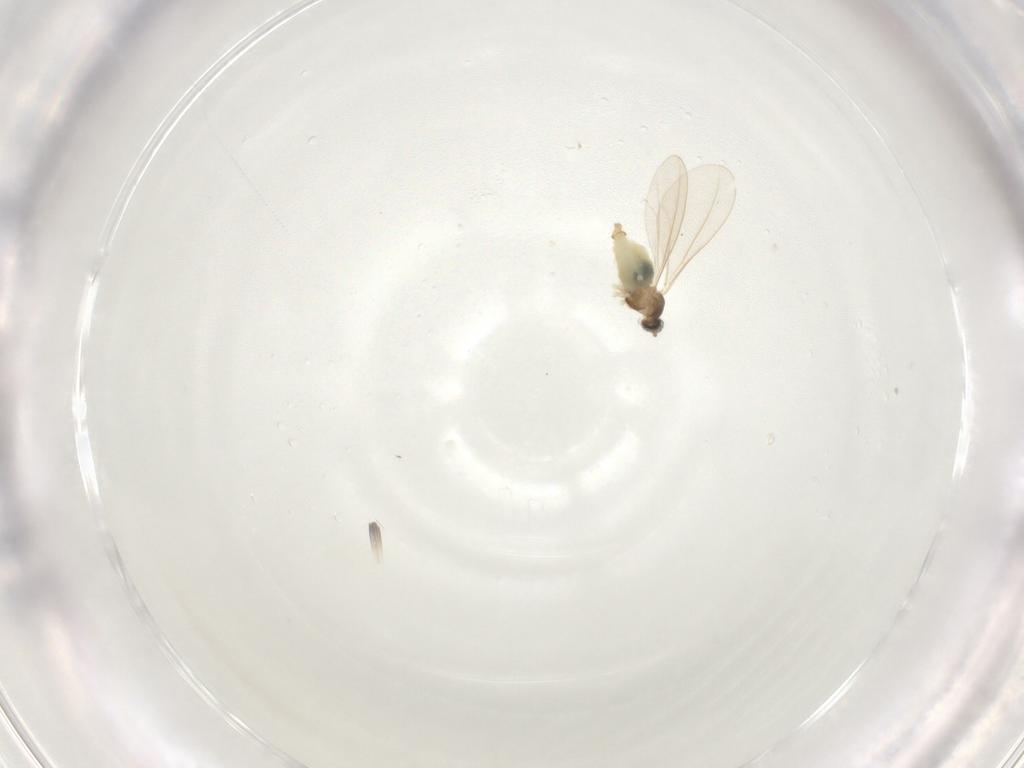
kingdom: Animalia
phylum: Arthropoda
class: Insecta
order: Diptera
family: Cecidomyiidae
